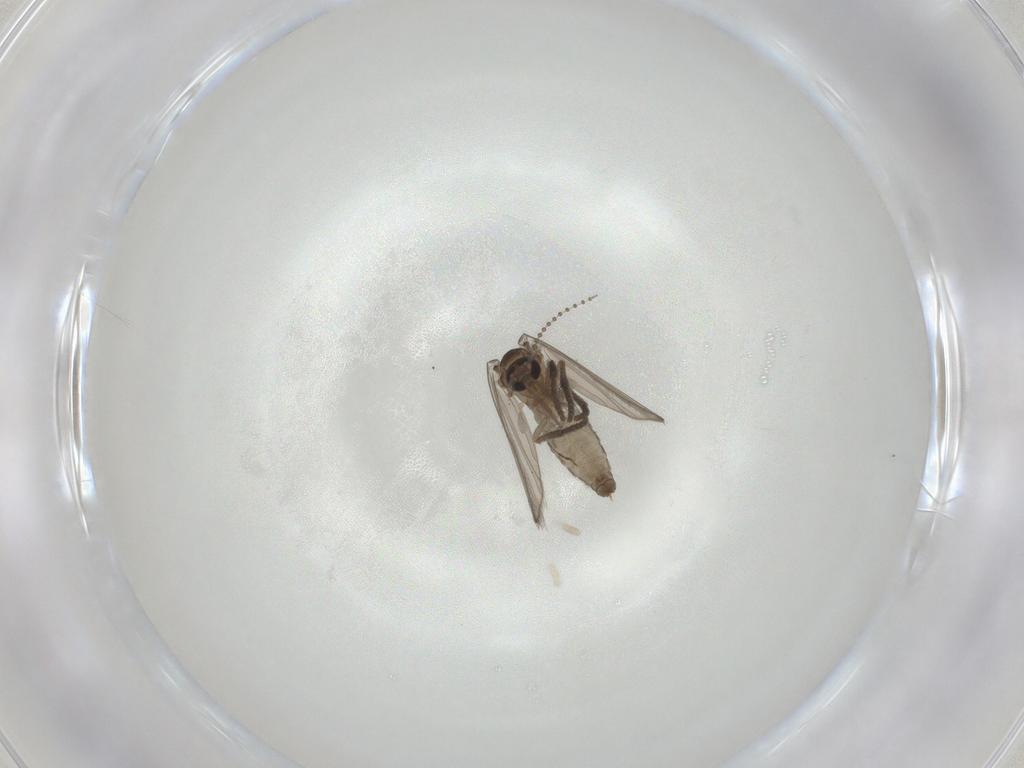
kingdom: Animalia
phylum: Arthropoda
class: Insecta
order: Diptera
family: Psychodidae
